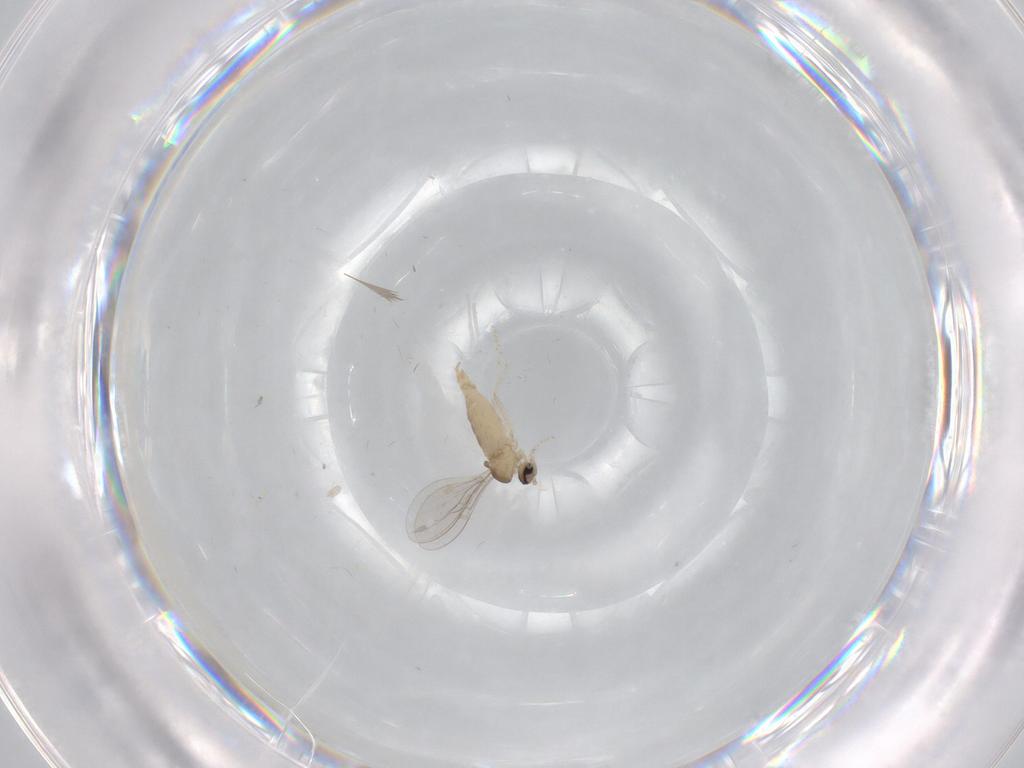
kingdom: Animalia
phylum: Arthropoda
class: Insecta
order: Diptera
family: Cecidomyiidae
